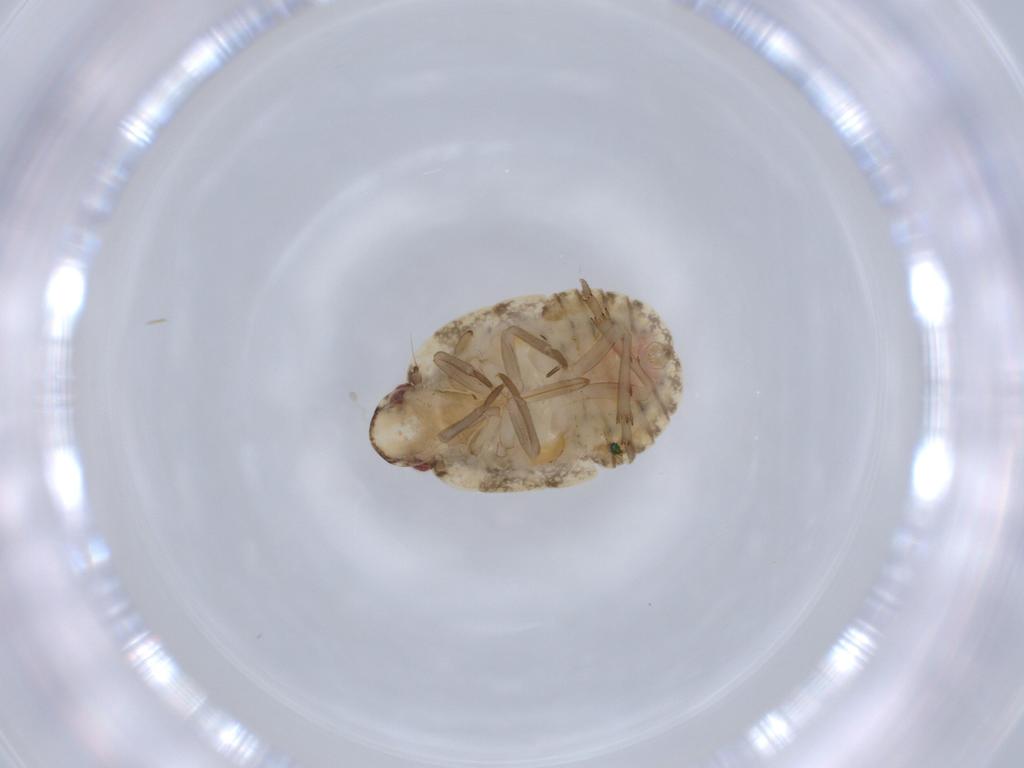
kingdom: Animalia
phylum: Arthropoda
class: Insecta
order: Hemiptera
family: Flatidae
